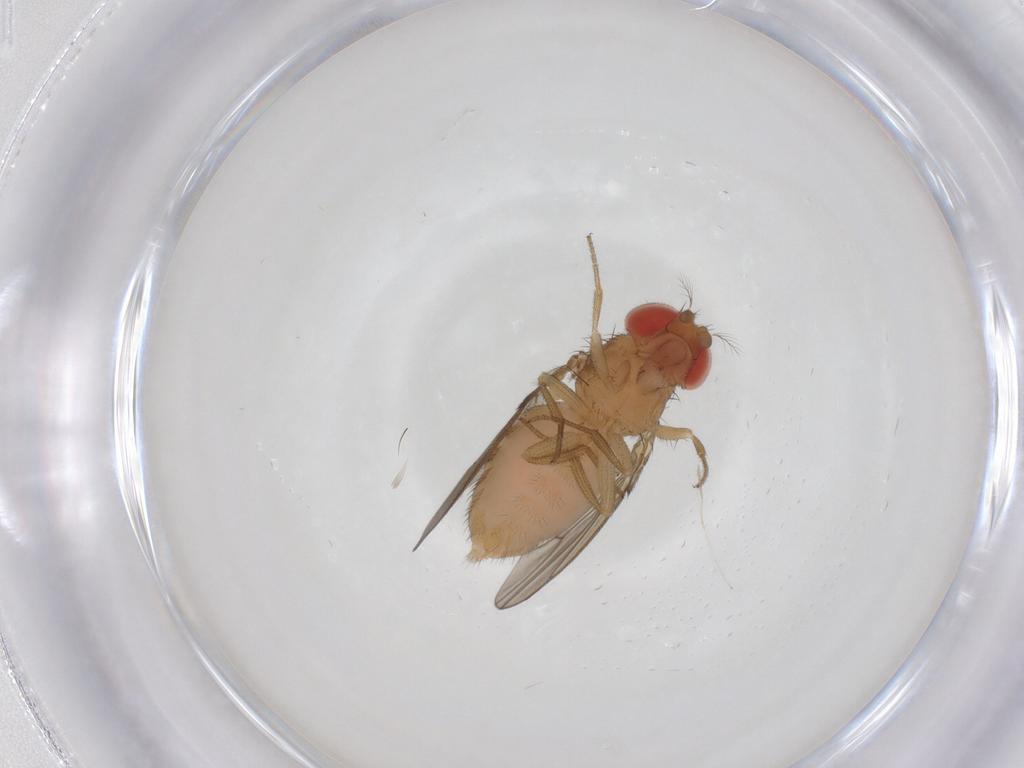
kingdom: Animalia
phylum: Arthropoda
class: Insecta
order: Diptera
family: Drosophilidae
